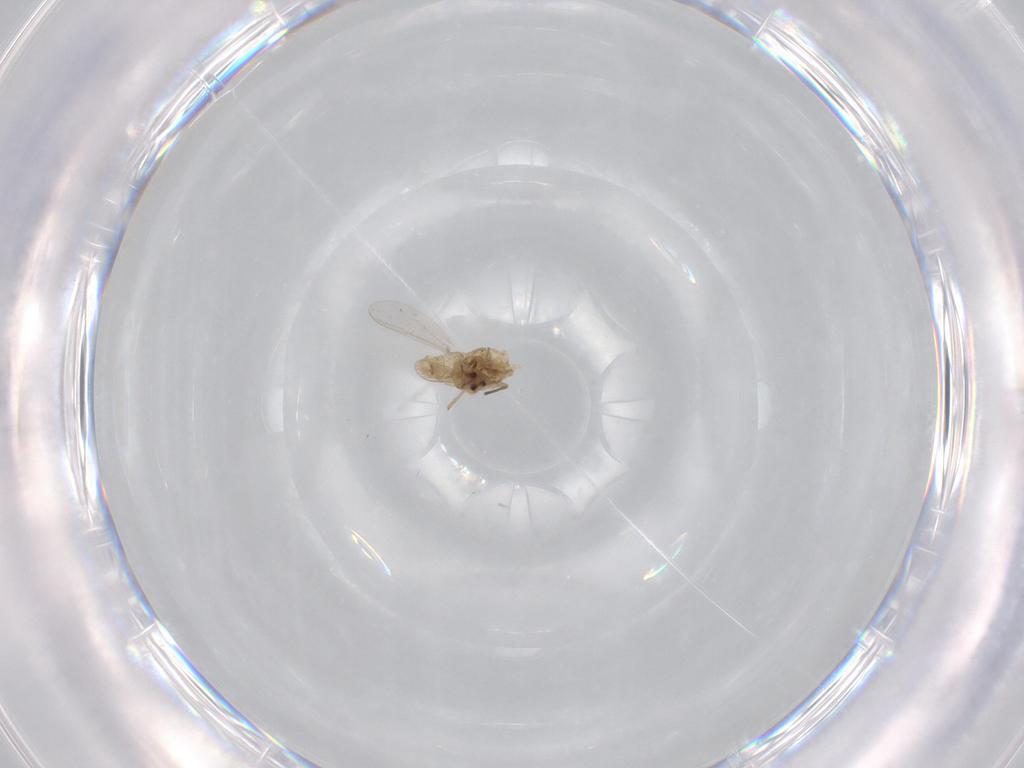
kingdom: Animalia
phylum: Arthropoda
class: Insecta
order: Diptera
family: Chironomidae
